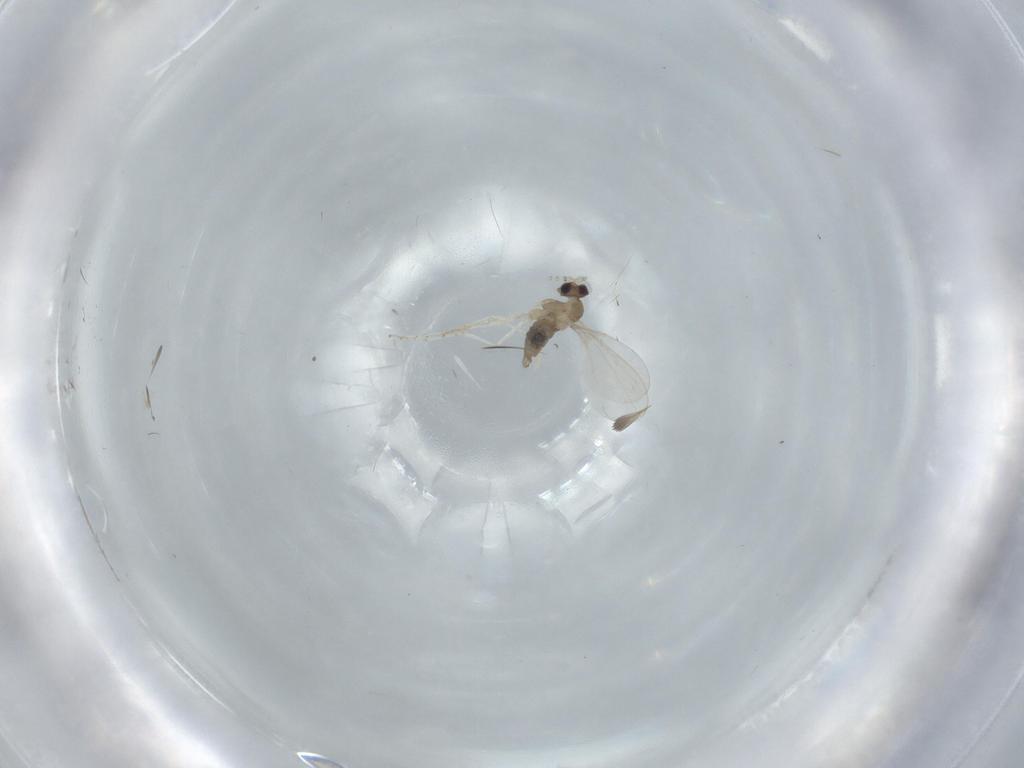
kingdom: Animalia
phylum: Arthropoda
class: Insecta
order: Diptera
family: Cecidomyiidae
